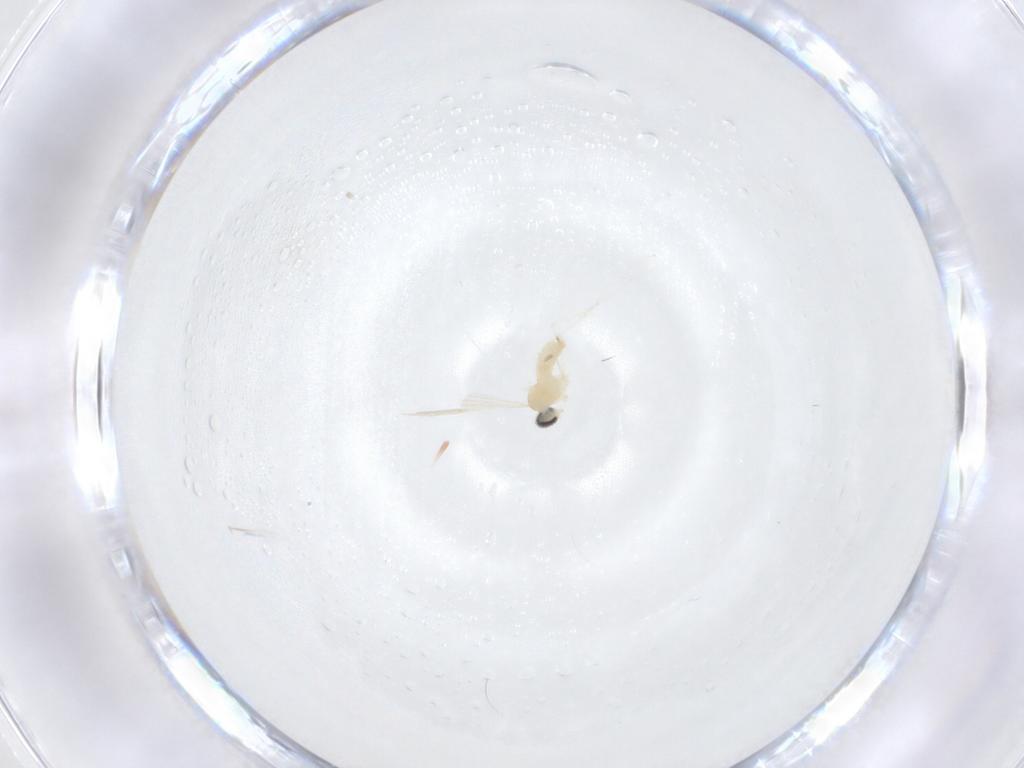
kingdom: Animalia
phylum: Arthropoda
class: Insecta
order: Diptera
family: Cecidomyiidae
